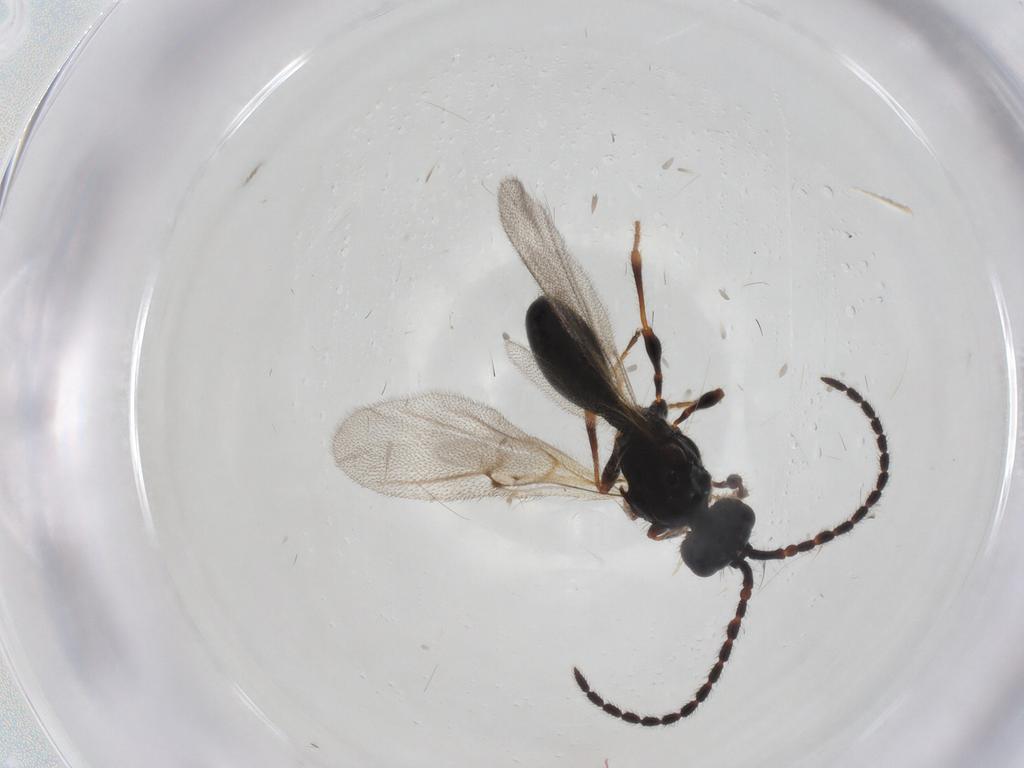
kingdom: Animalia
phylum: Arthropoda
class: Insecta
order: Hymenoptera
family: Diapriidae
